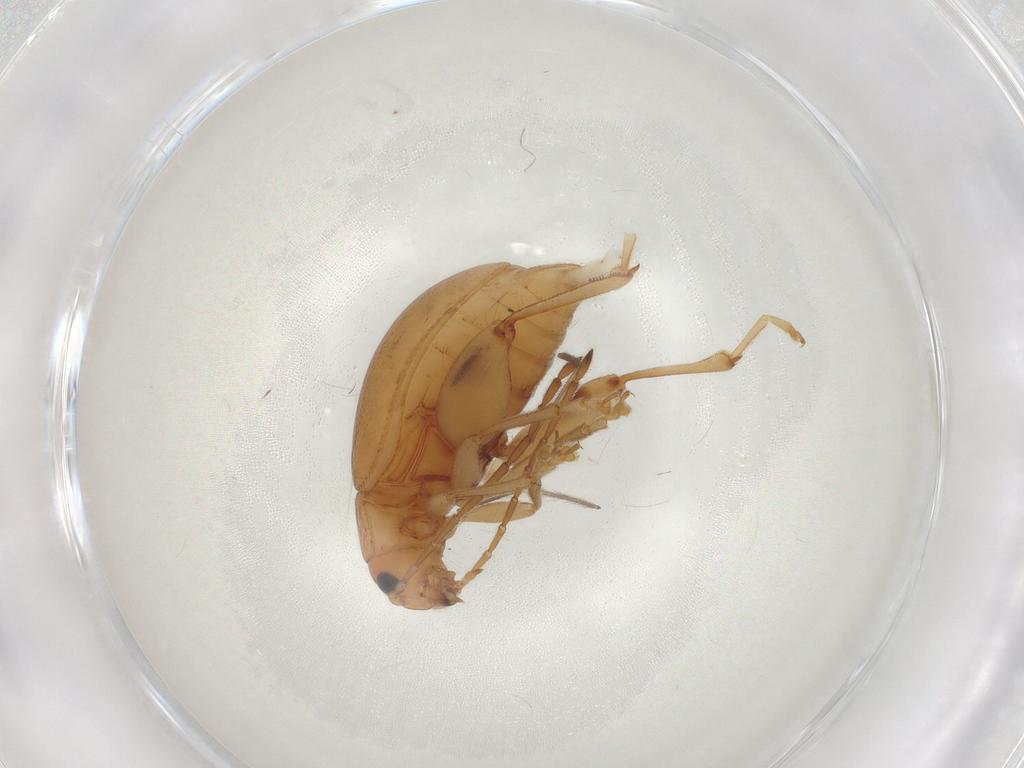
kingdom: Animalia
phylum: Arthropoda
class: Insecta
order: Coleoptera
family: Chrysomelidae
